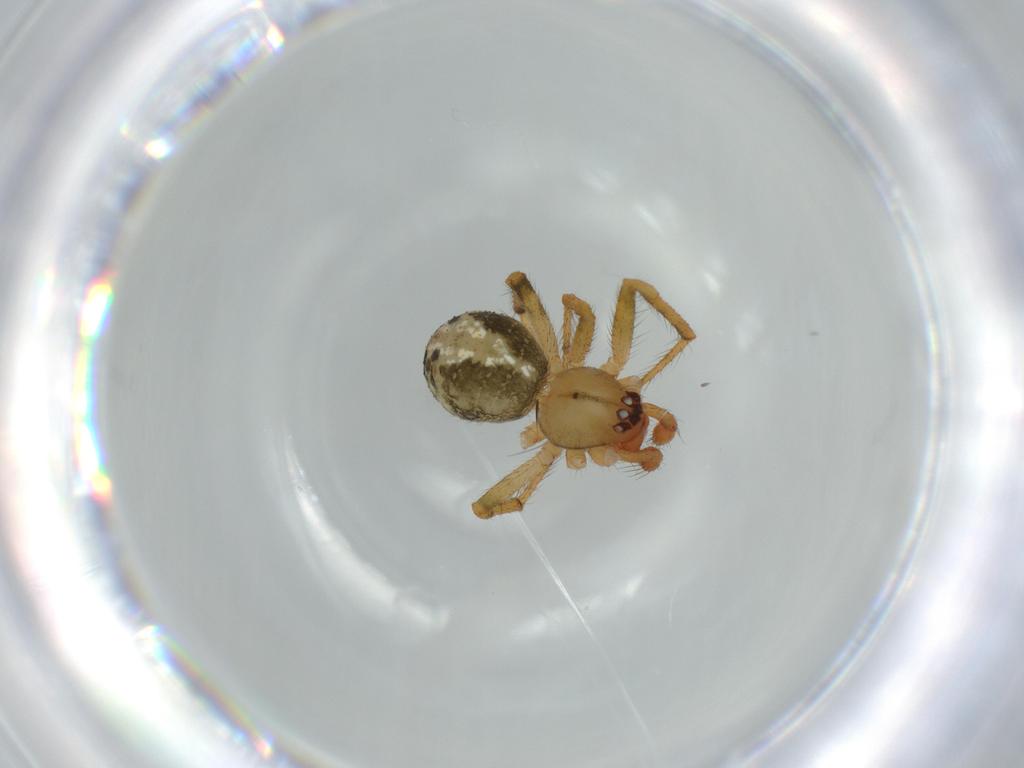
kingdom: Animalia
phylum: Arthropoda
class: Arachnida
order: Araneae
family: Theridiidae
